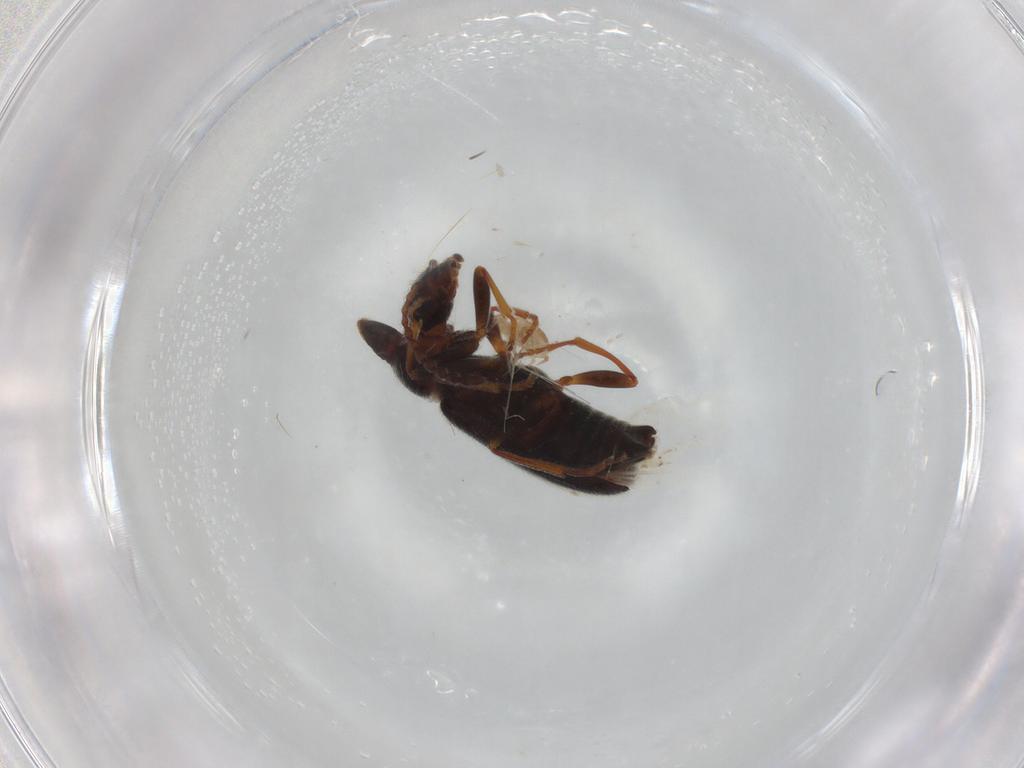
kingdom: Animalia
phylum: Arthropoda
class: Insecta
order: Coleoptera
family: Anthicidae
